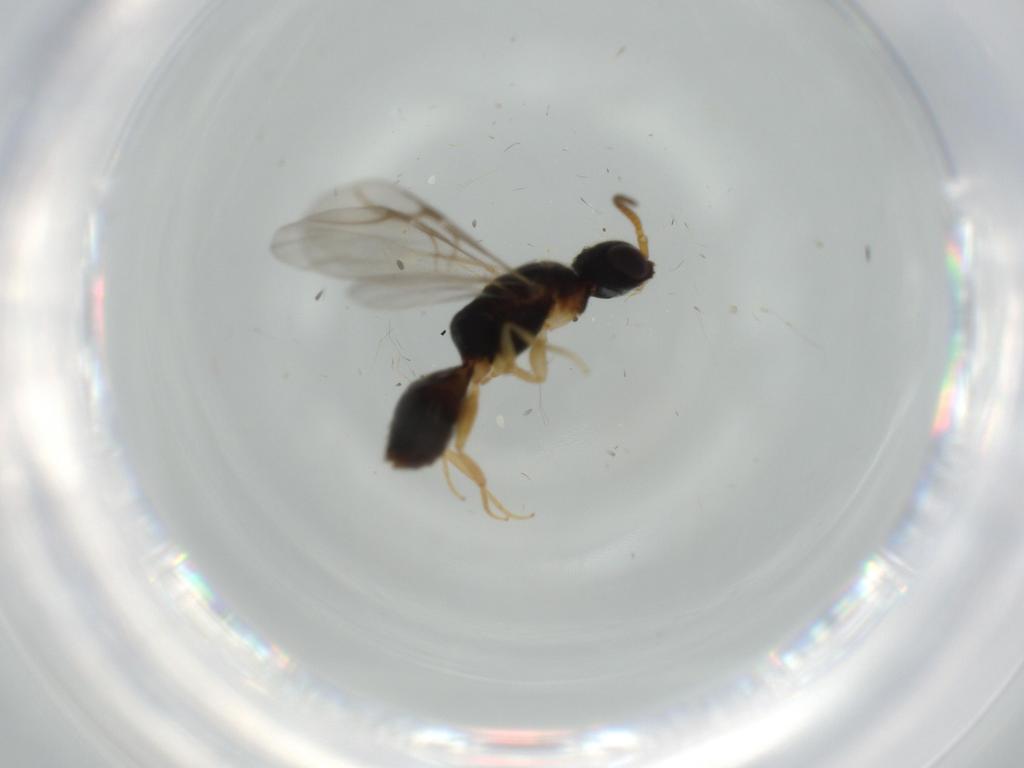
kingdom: Animalia
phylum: Arthropoda
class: Insecta
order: Hymenoptera
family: Bethylidae
